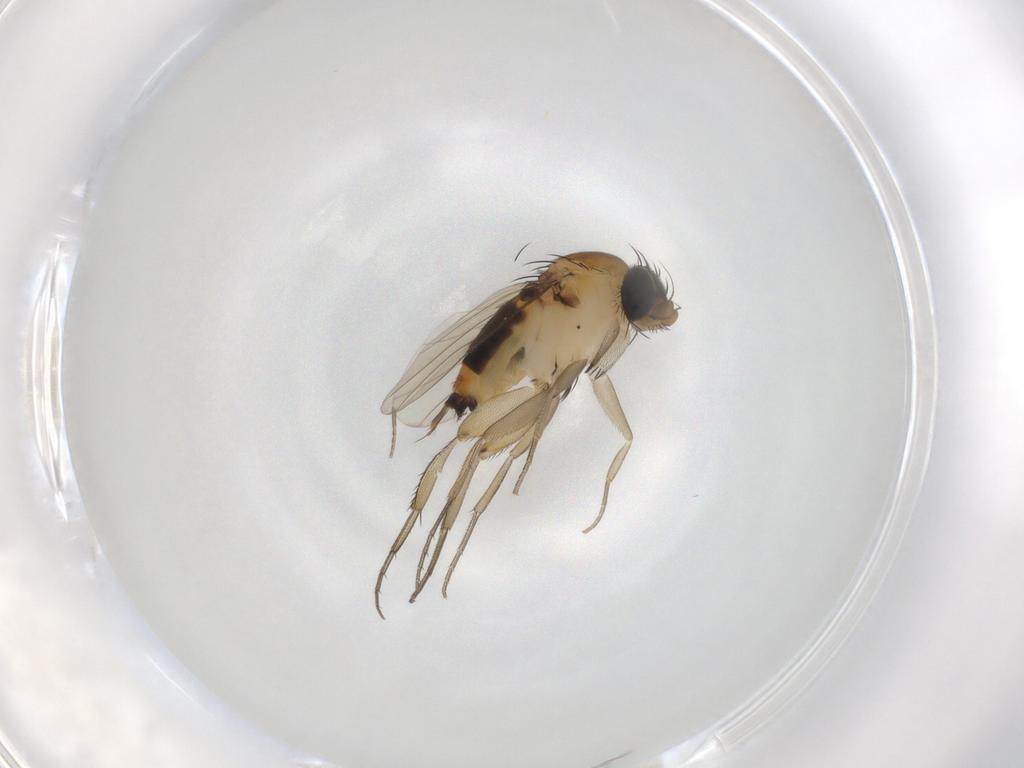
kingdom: Animalia
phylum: Arthropoda
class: Insecta
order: Diptera
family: Phoridae
